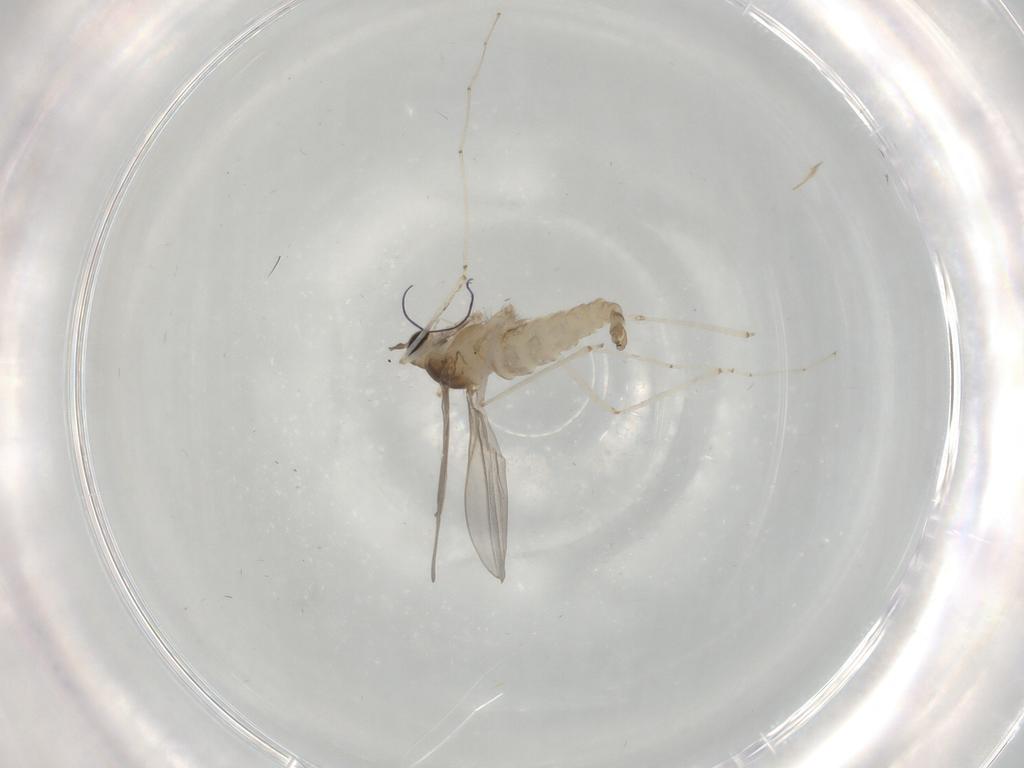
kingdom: Animalia
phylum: Arthropoda
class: Insecta
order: Diptera
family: Cecidomyiidae
